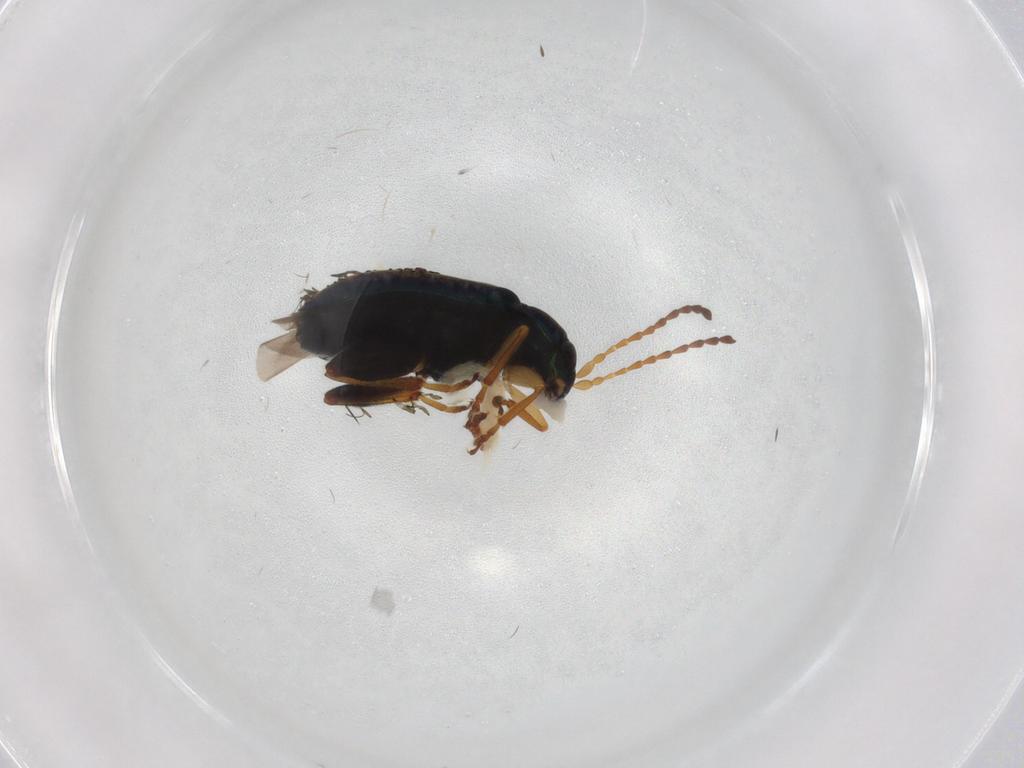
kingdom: Animalia
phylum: Arthropoda
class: Insecta
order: Coleoptera
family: Chrysomelidae
